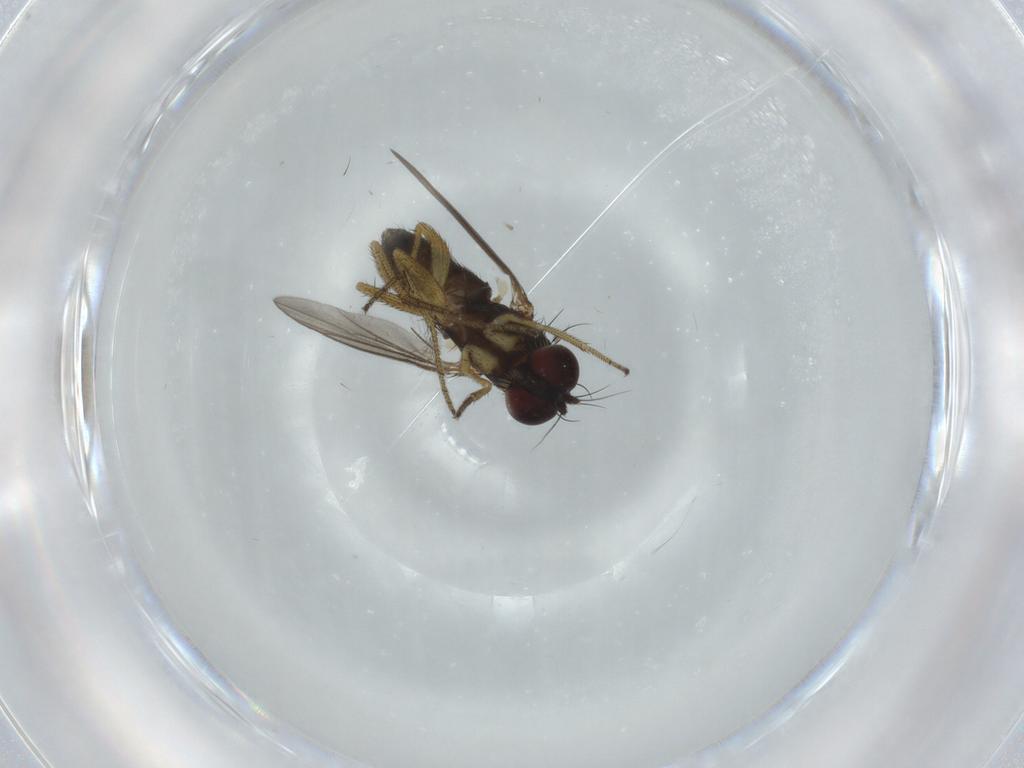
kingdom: Animalia
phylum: Arthropoda
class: Insecta
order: Diptera
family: Dolichopodidae
